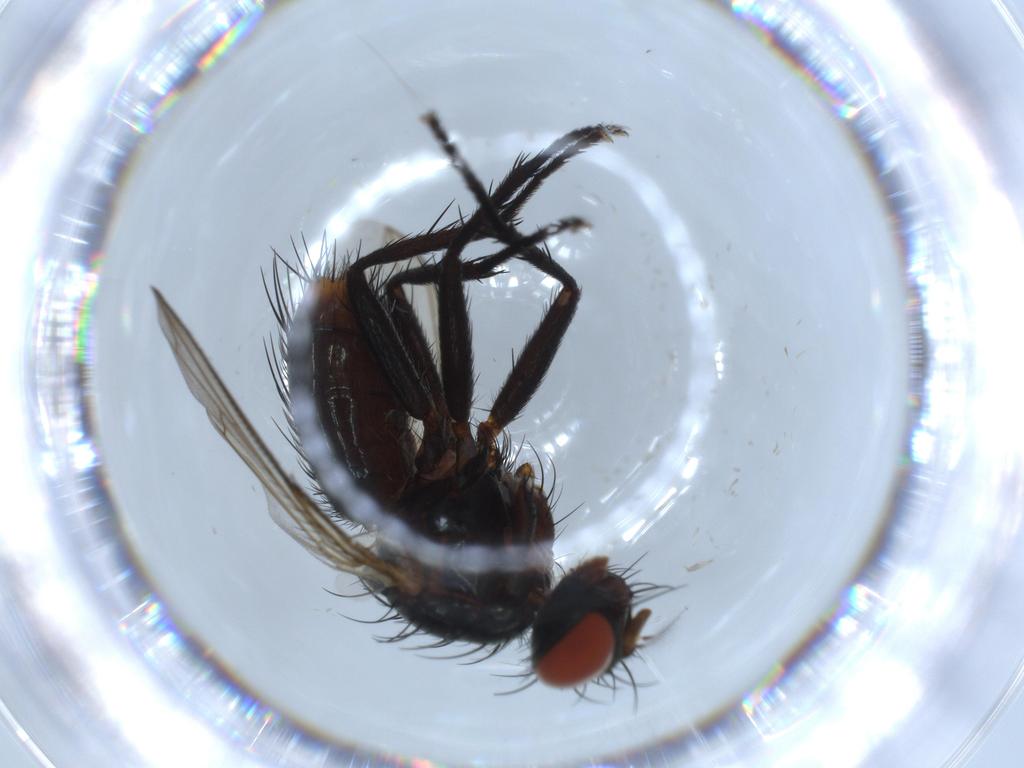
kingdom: Animalia
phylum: Arthropoda
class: Insecta
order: Diptera
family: Sarcophagidae
